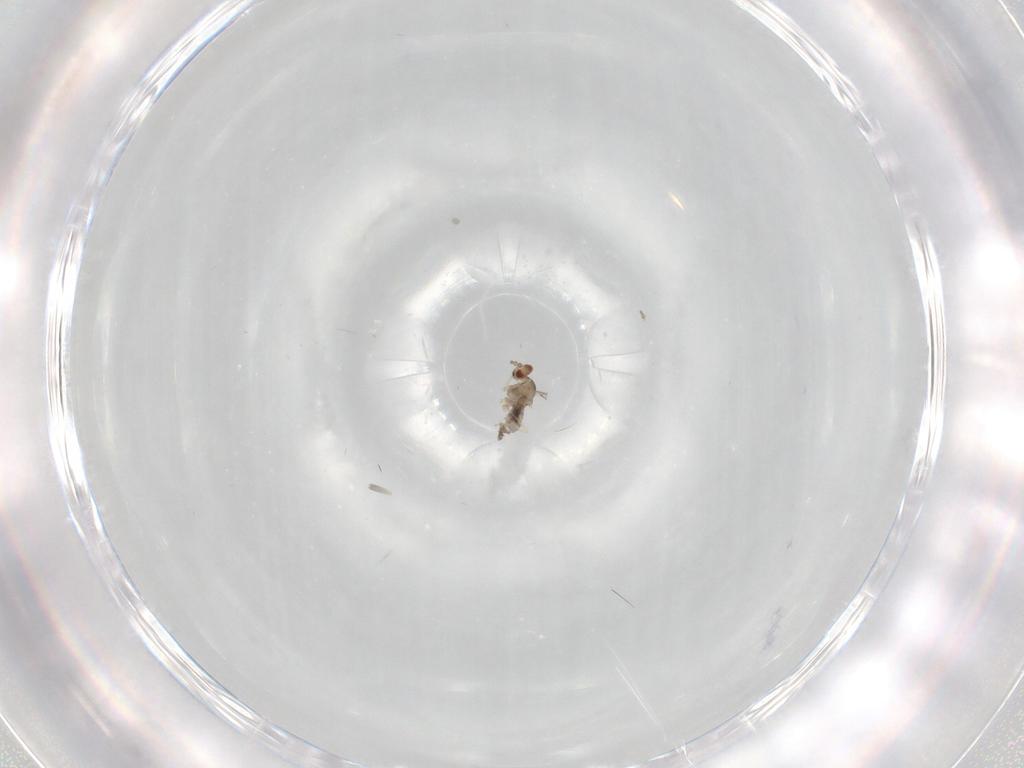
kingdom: Animalia
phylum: Arthropoda
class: Insecta
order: Diptera
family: Cecidomyiidae
